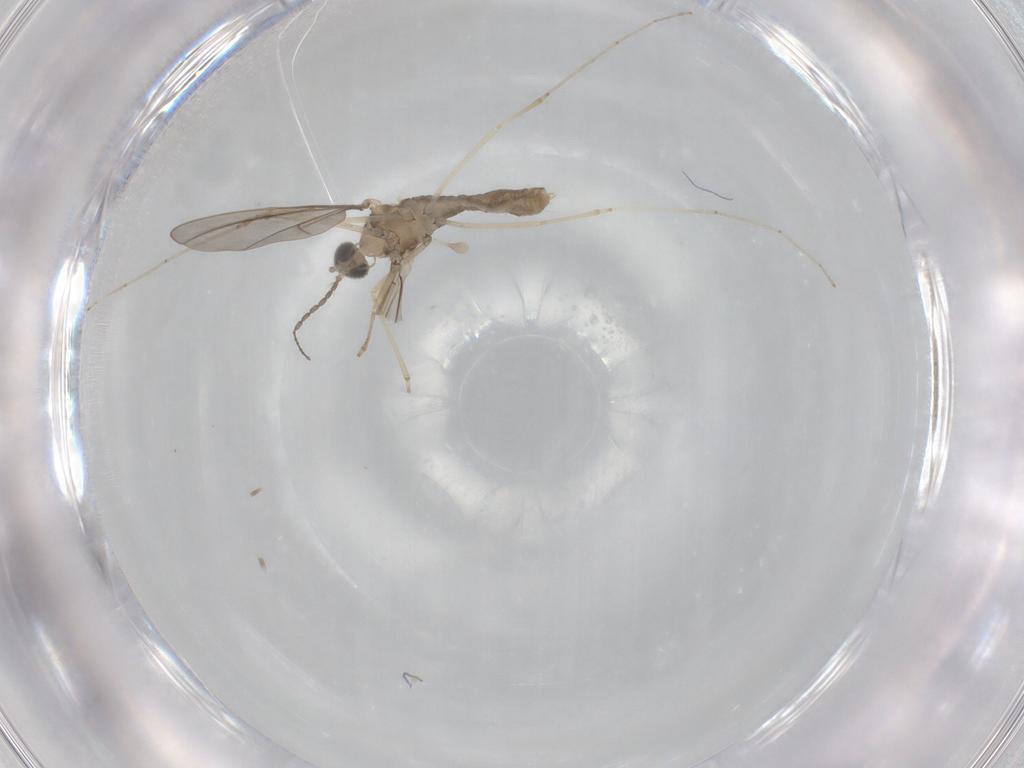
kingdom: Animalia
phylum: Arthropoda
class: Insecta
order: Diptera
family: Cecidomyiidae
